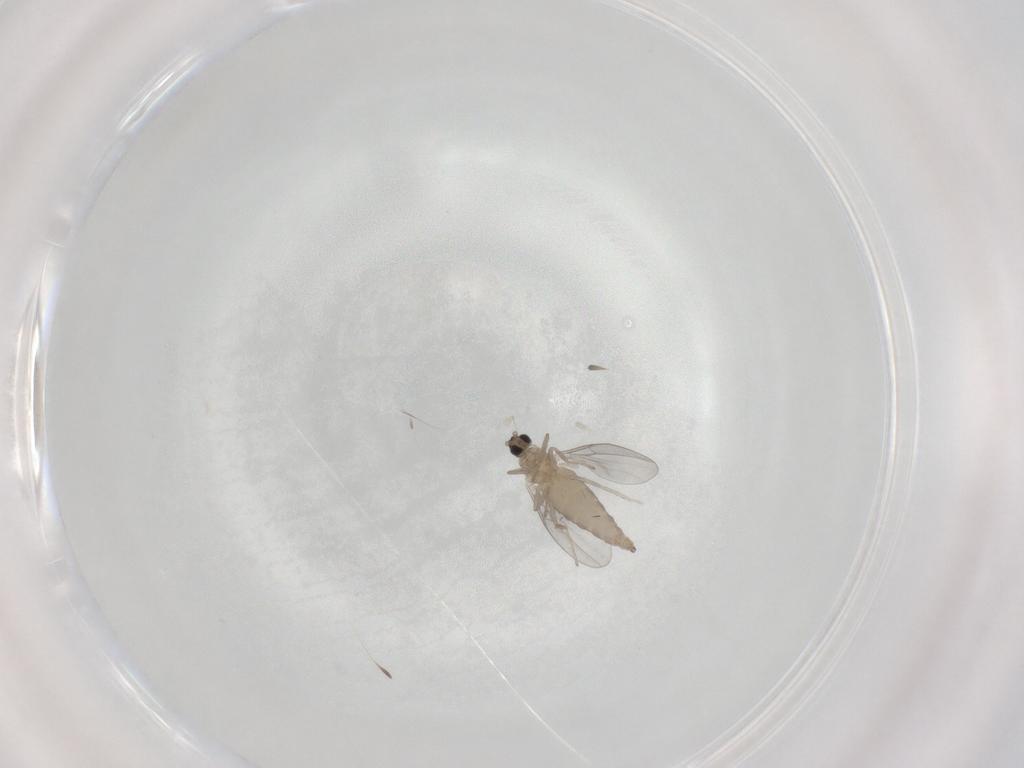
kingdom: Animalia
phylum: Arthropoda
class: Insecta
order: Diptera
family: Cecidomyiidae
